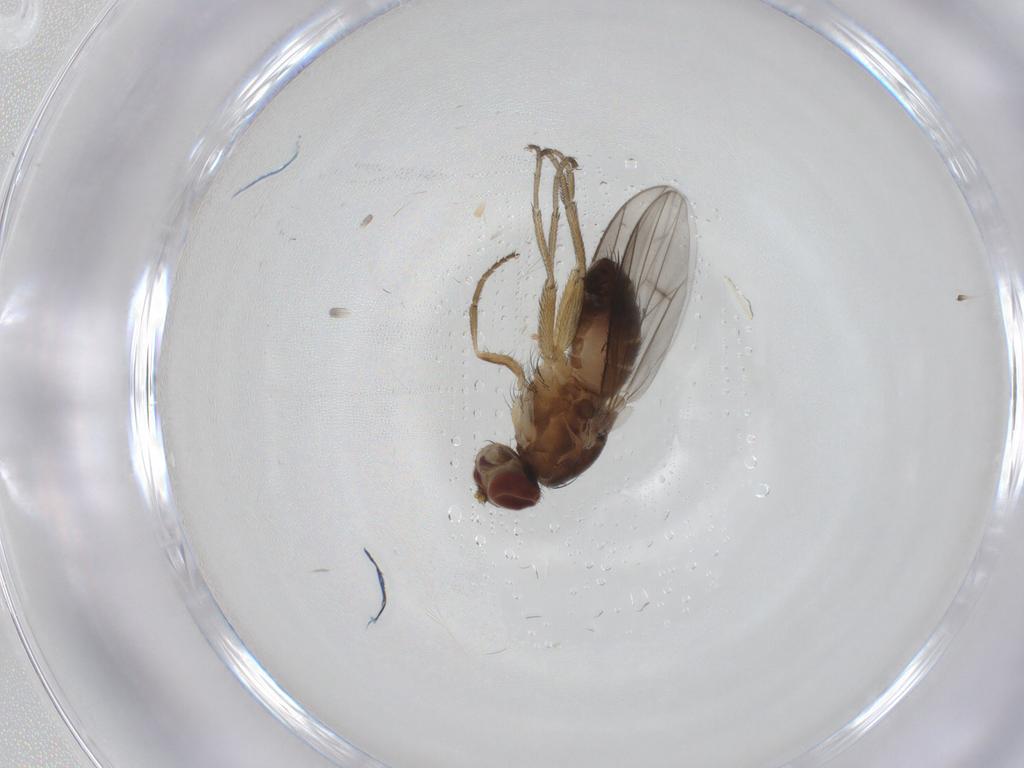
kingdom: Animalia
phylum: Arthropoda
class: Insecta
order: Diptera
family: Heleomyzidae
